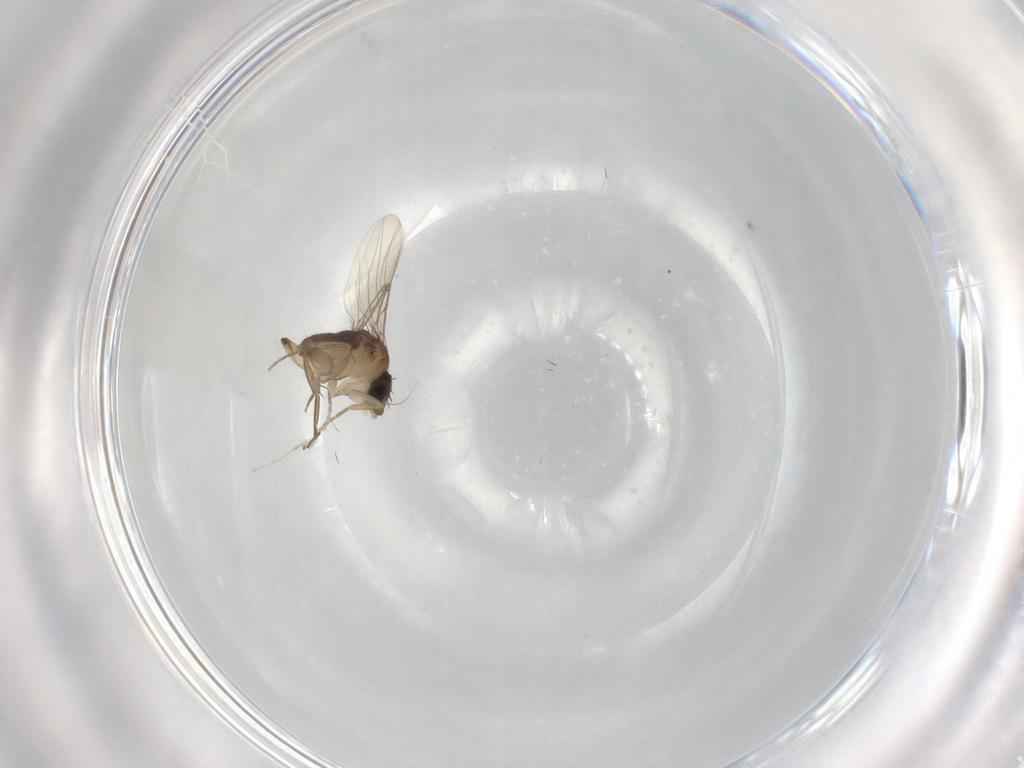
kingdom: Animalia
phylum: Arthropoda
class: Insecta
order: Diptera
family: Phoridae
